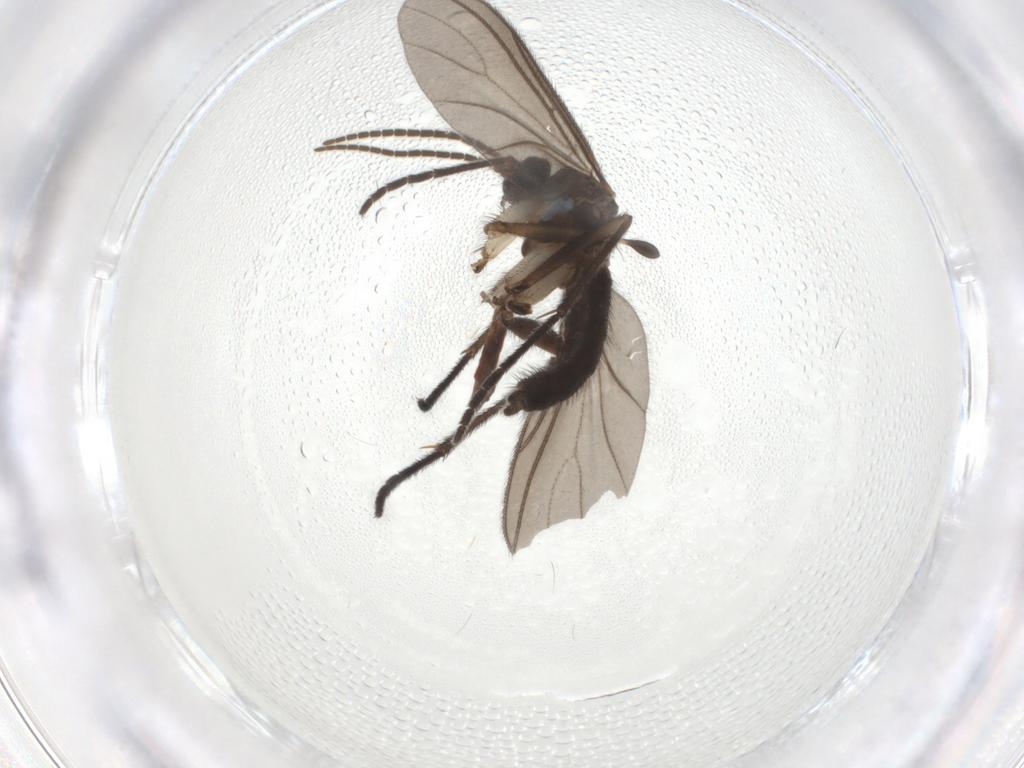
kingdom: Animalia
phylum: Arthropoda
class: Insecta
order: Diptera
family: Sciaridae
